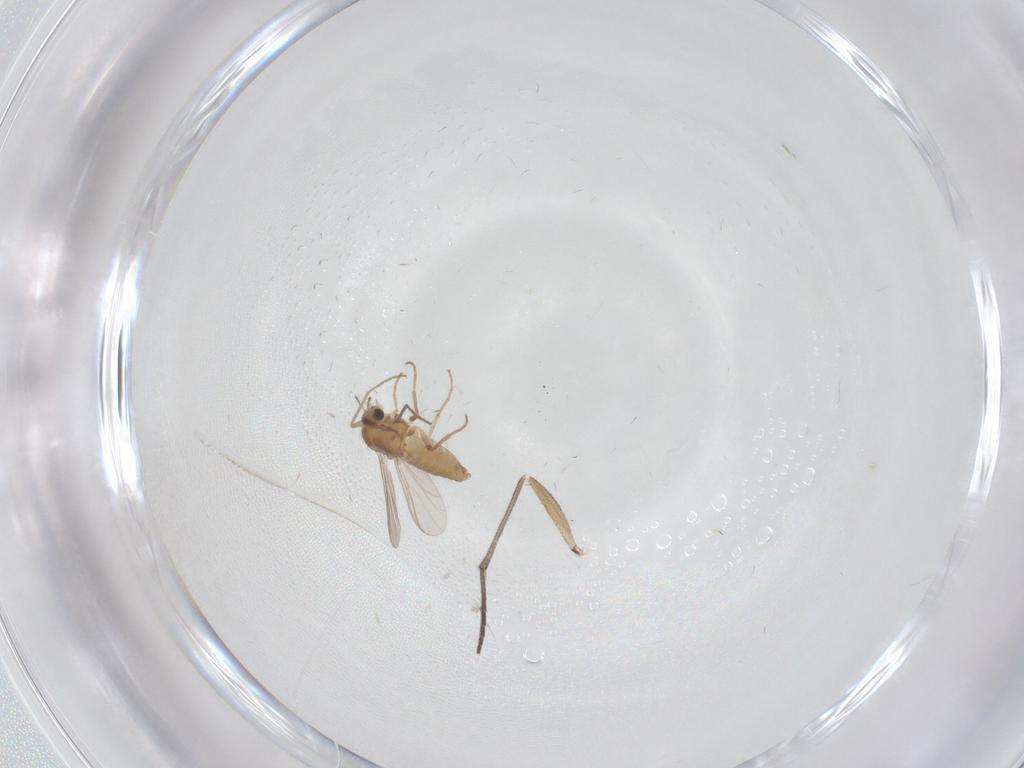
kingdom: Animalia
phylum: Arthropoda
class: Insecta
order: Diptera
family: Chironomidae
